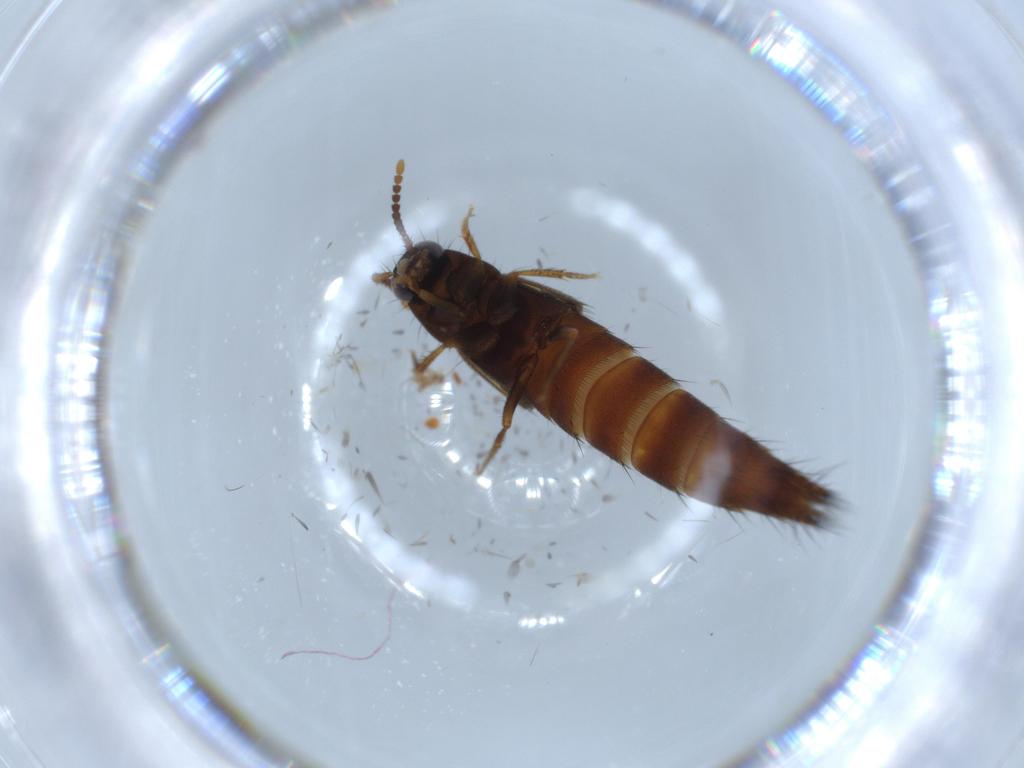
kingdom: Animalia
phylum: Arthropoda
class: Insecta
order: Coleoptera
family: Staphylinidae
